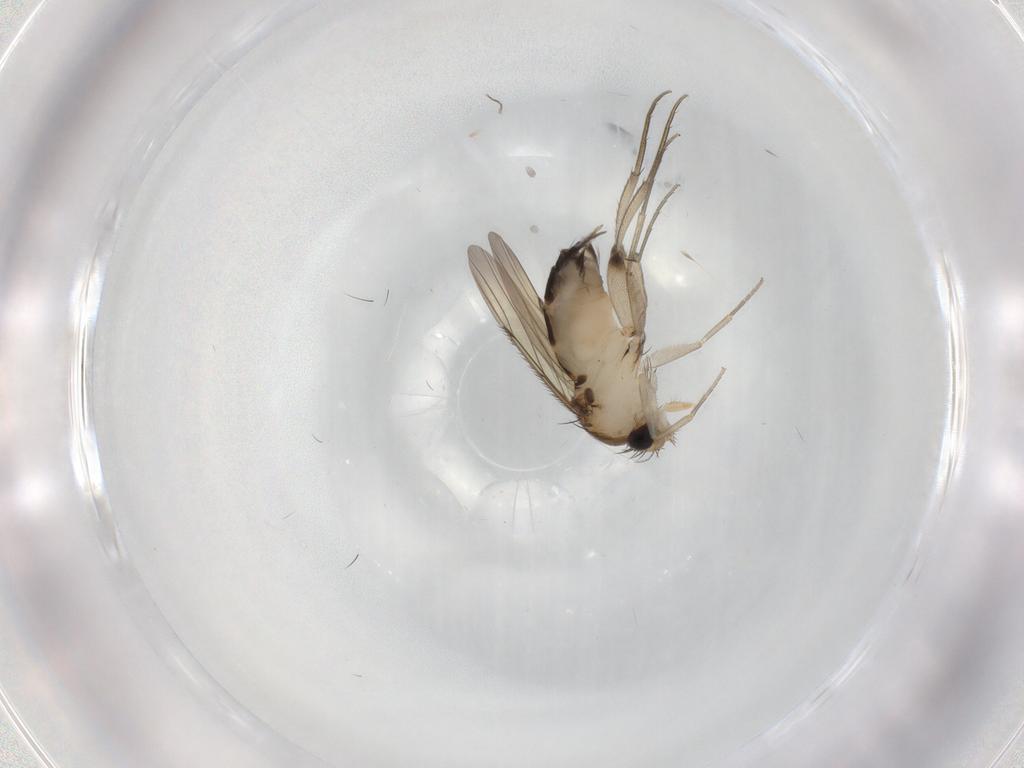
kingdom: Animalia
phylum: Arthropoda
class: Insecta
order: Diptera
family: Phoridae
